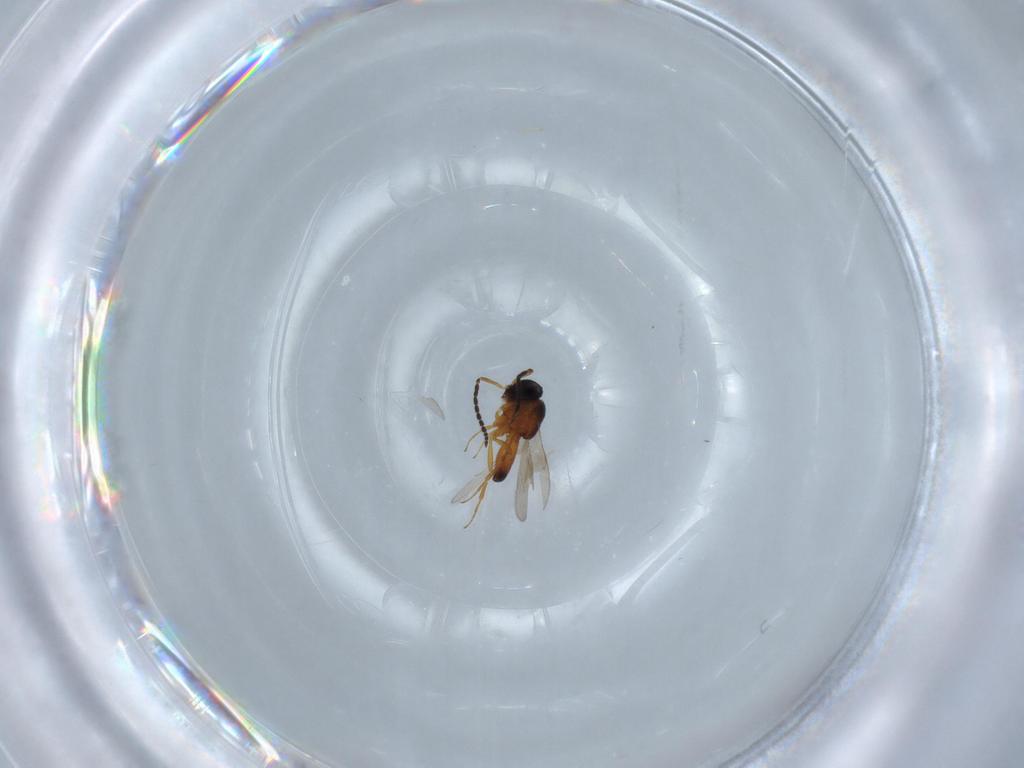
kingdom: Animalia
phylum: Arthropoda
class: Insecta
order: Hymenoptera
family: Scelionidae
